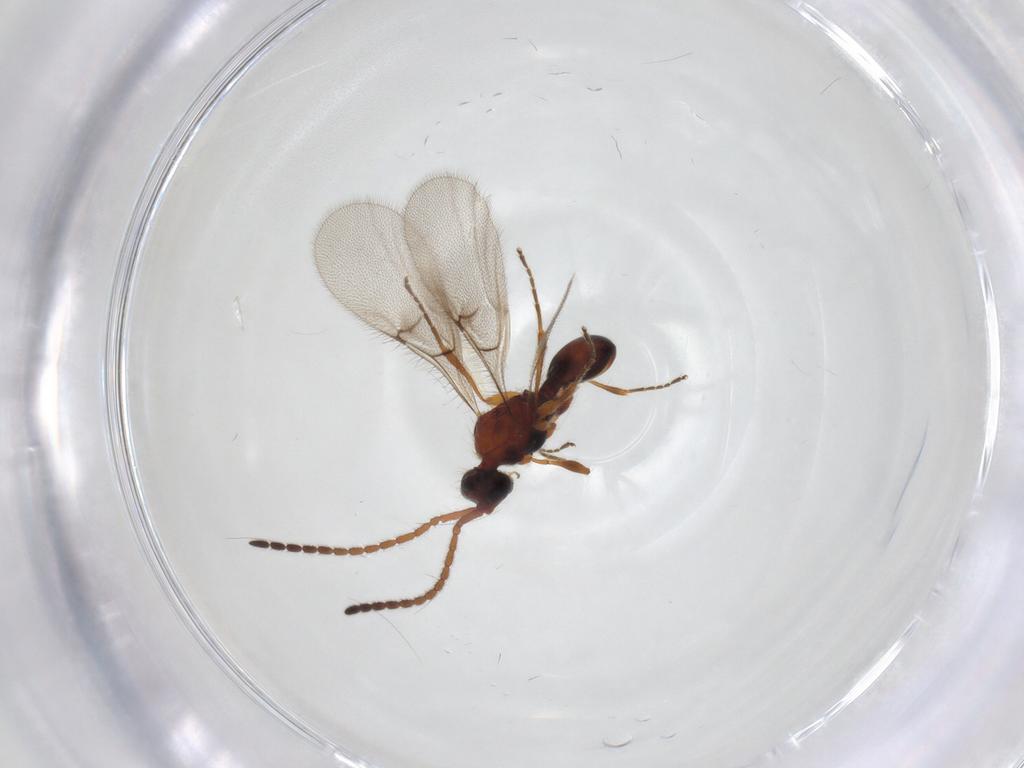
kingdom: Animalia
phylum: Arthropoda
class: Insecta
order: Hymenoptera
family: Diapriidae
